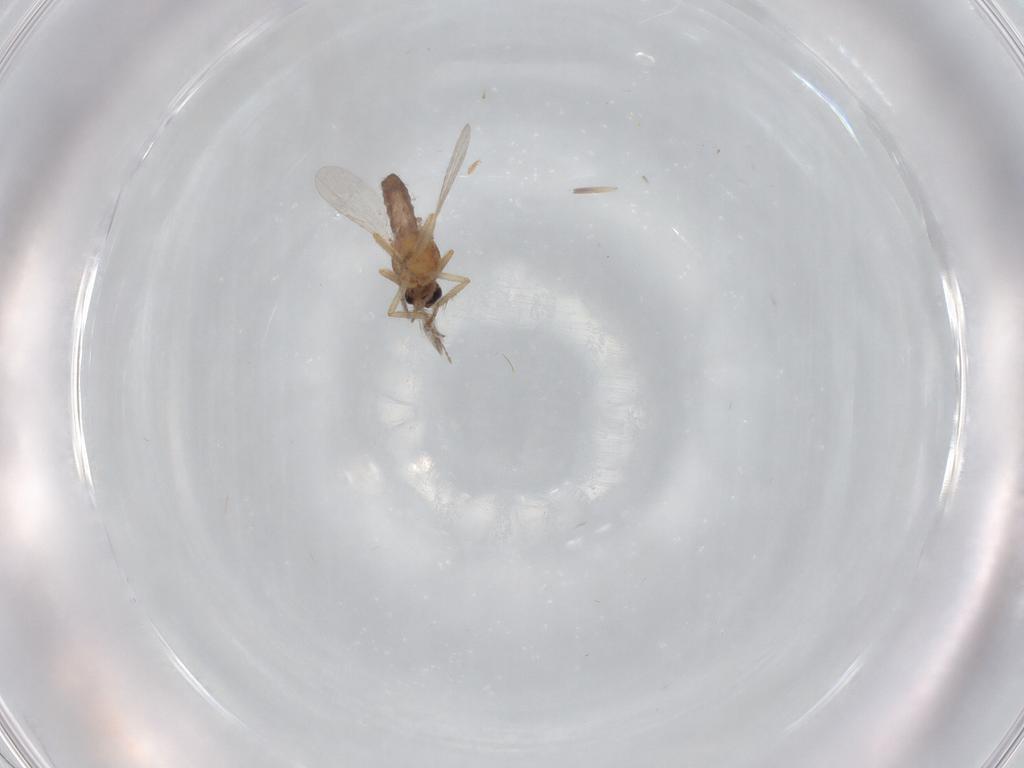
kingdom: Animalia
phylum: Arthropoda
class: Insecta
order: Diptera
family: Ceratopogonidae
